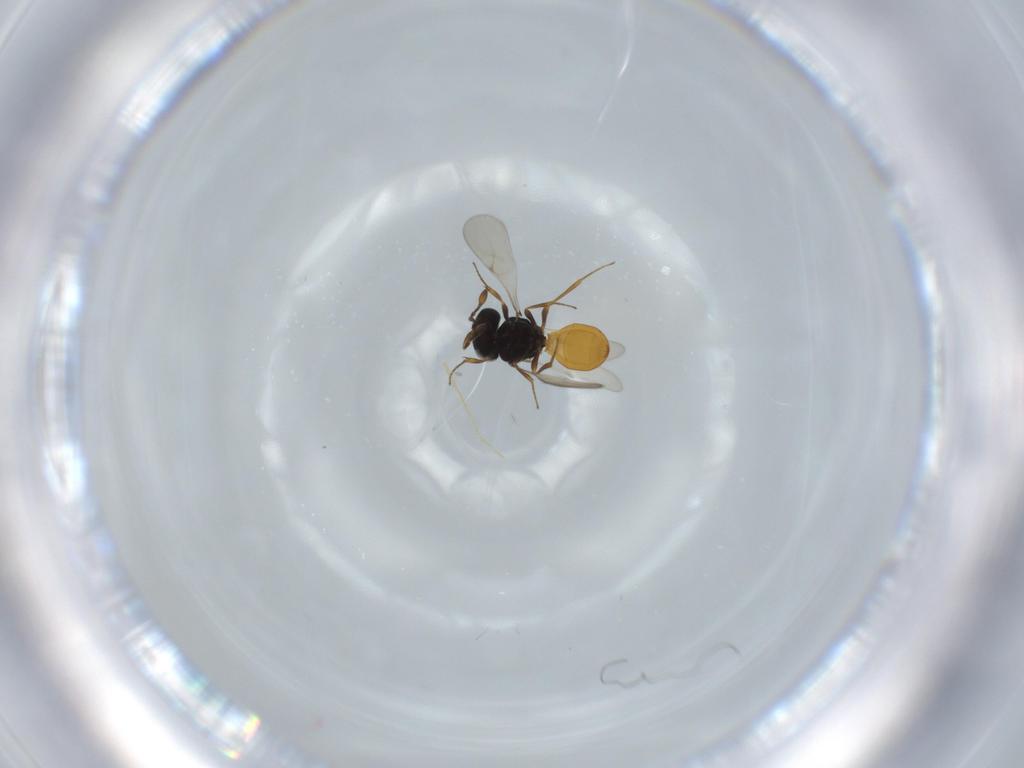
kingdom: Animalia
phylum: Arthropoda
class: Insecta
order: Hymenoptera
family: Scelionidae
